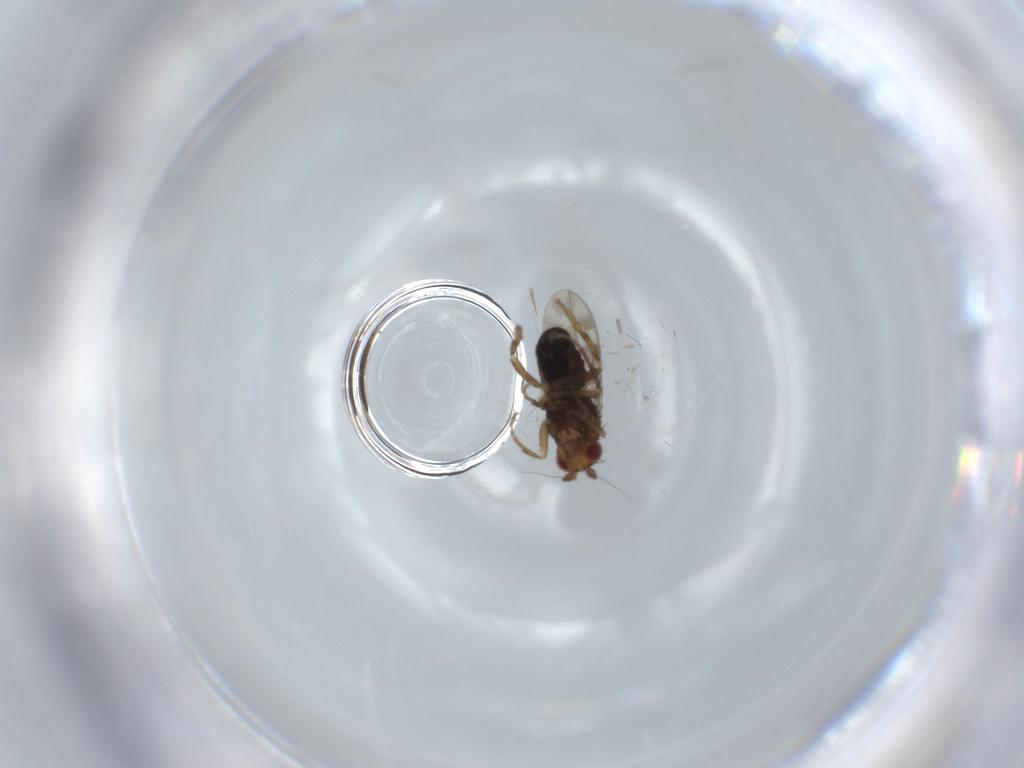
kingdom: Animalia
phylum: Arthropoda
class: Insecta
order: Diptera
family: Sphaeroceridae
